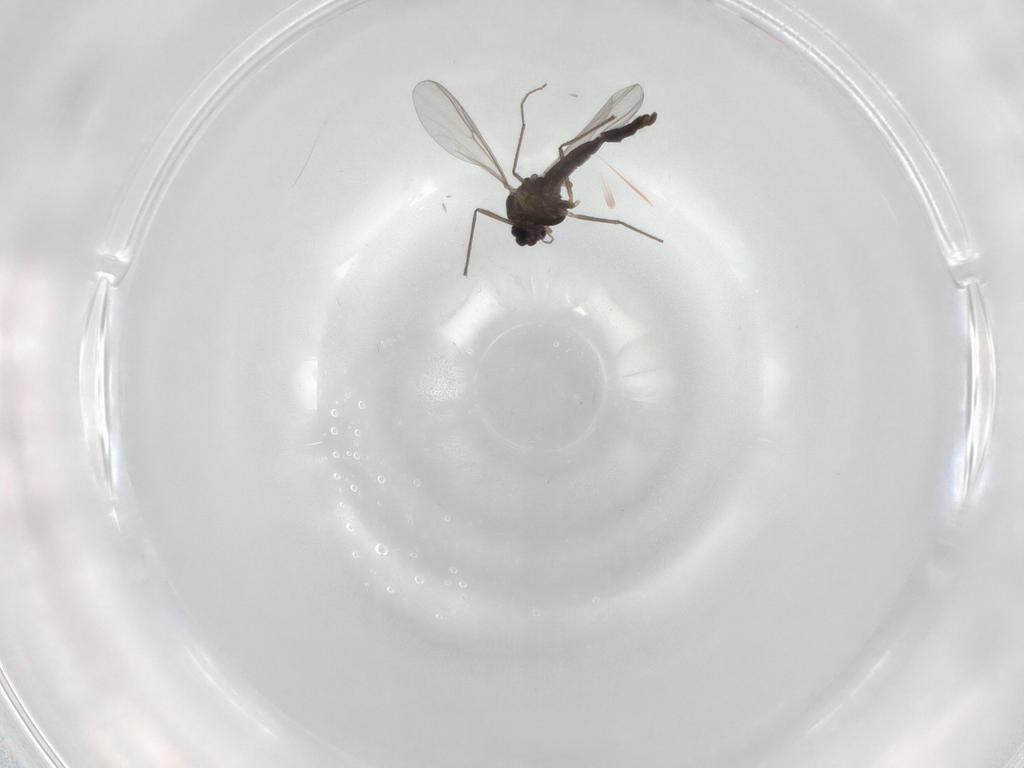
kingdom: Animalia
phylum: Arthropoda
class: Insecta
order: Diptera
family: Chironomidae
